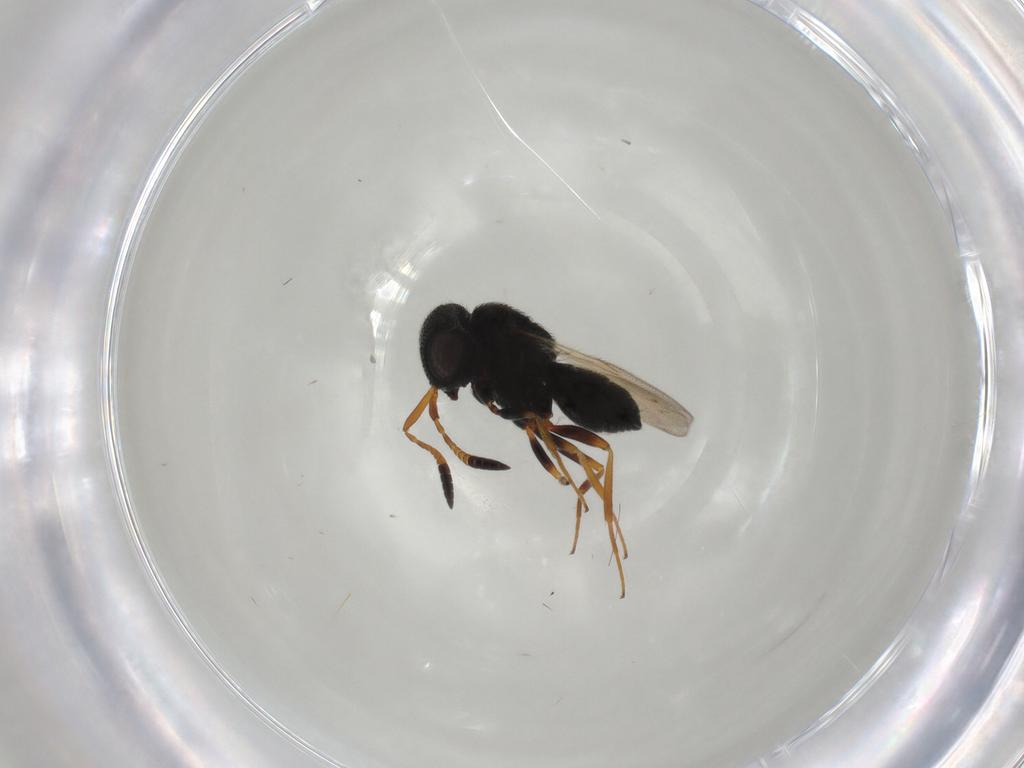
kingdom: Animalia
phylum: Arthropoda
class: Insecta
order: Hymenoptera
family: Scelionidae
